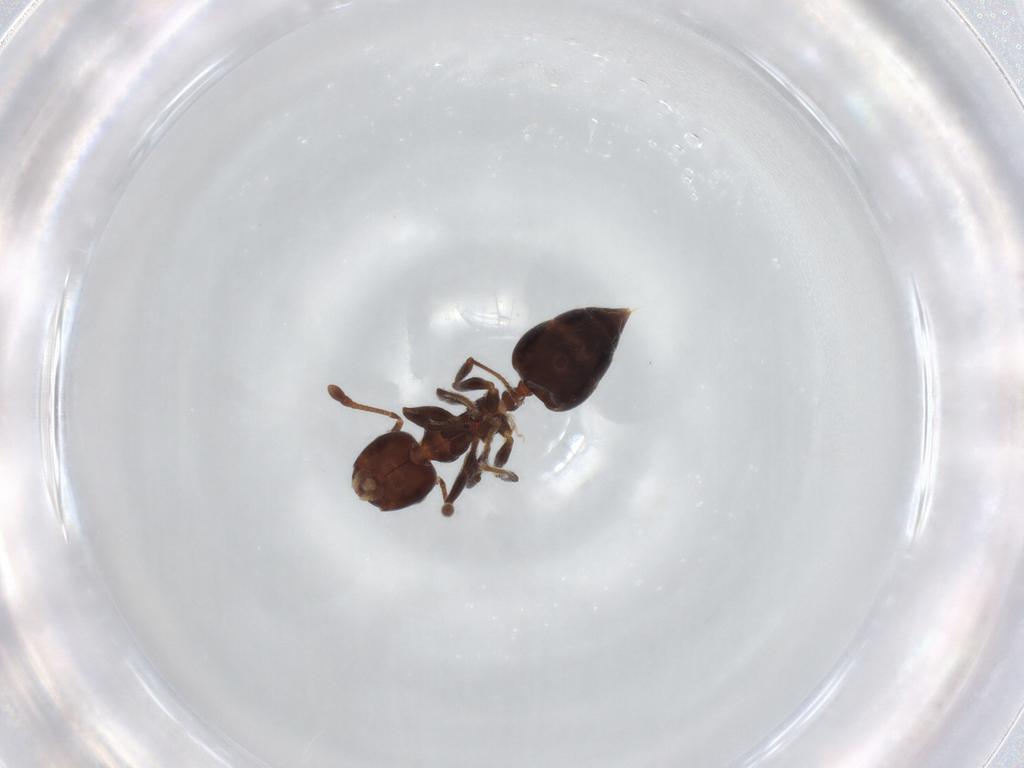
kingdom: Animalia
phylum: Arthropoda
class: Insecta
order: Hymenoptera
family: Formicidae
